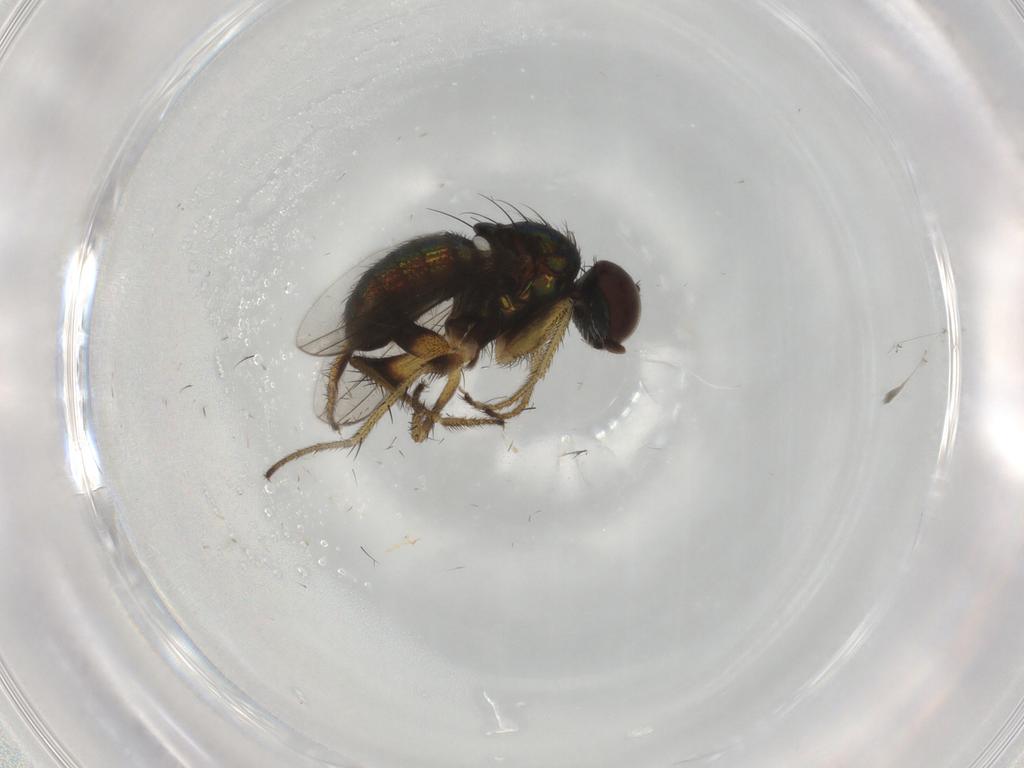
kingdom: Animalia
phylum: Arthropoda
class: Insecta
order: Diptera
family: Dolichopodidae
